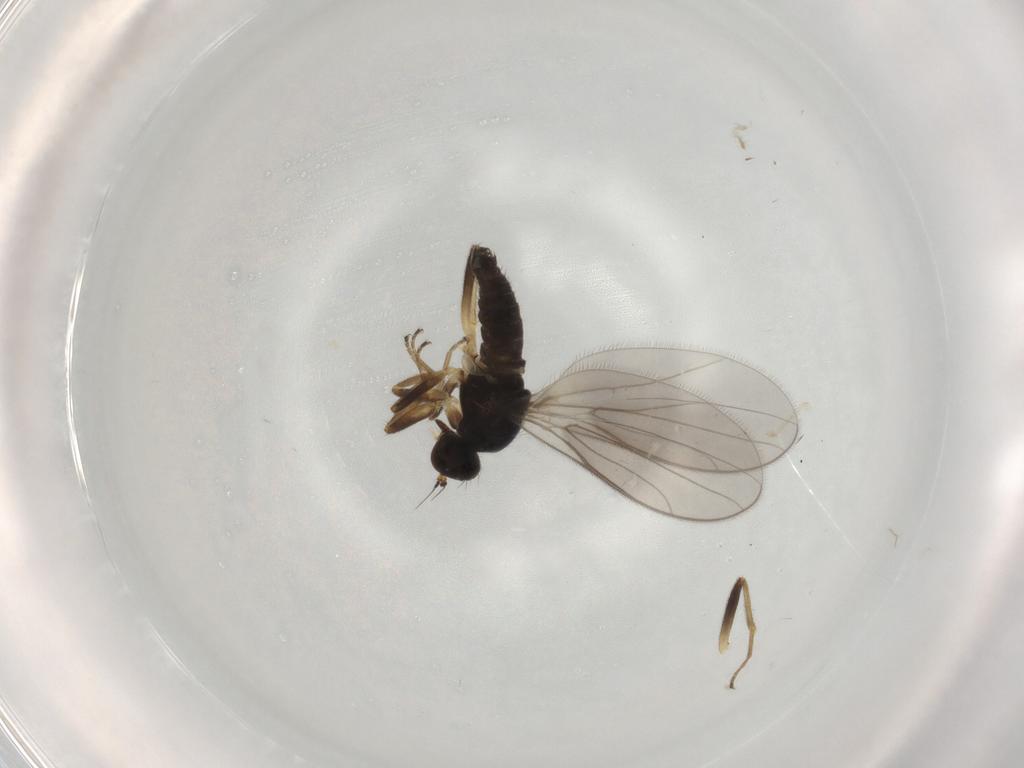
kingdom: Animalia
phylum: Arthropoda
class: Insecta
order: Diptera
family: Hybotidae
